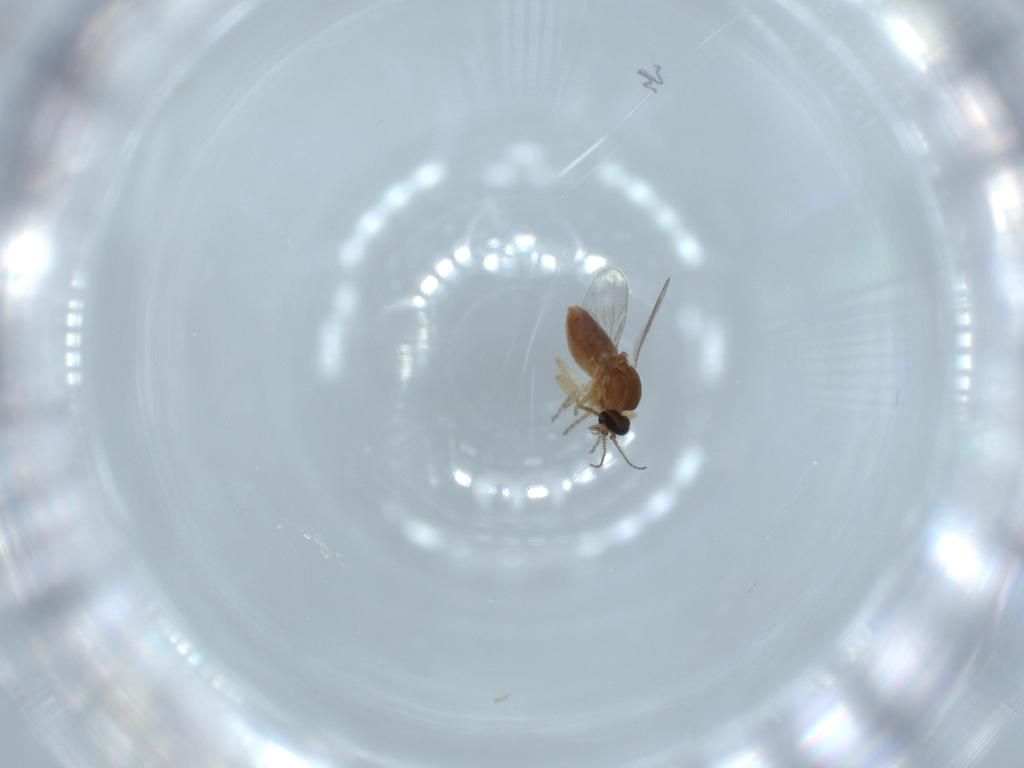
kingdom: Animalia
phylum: Arthropoda
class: Insecta
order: Diptera
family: Ceratopogonidae
